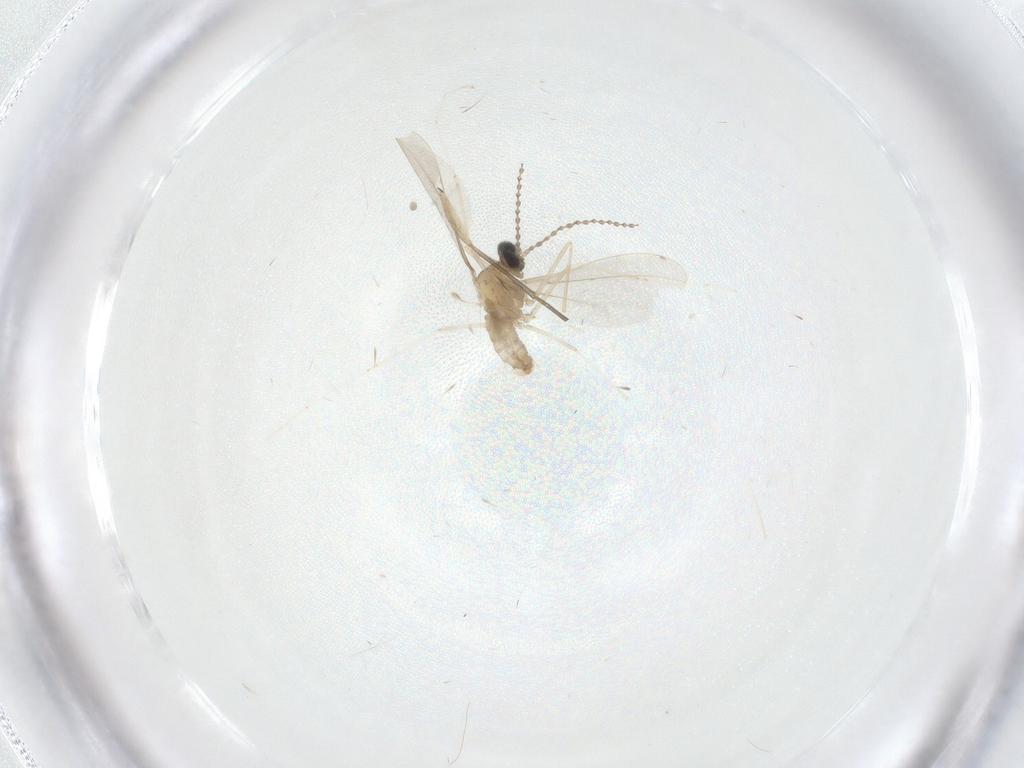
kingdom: Animalia
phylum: Arthropoda
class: Insecta
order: Diptera
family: Cecidomyiidae
